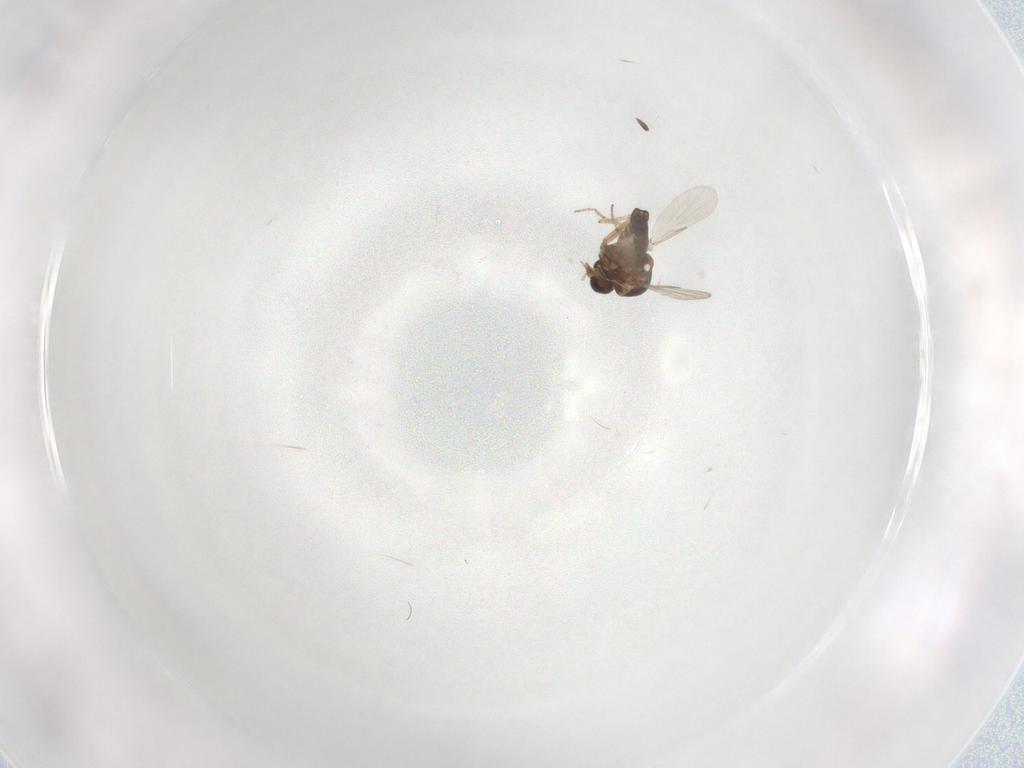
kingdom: Animalia
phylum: Arthropoda
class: Insecta
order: Diptera
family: Ceratopogonidae
